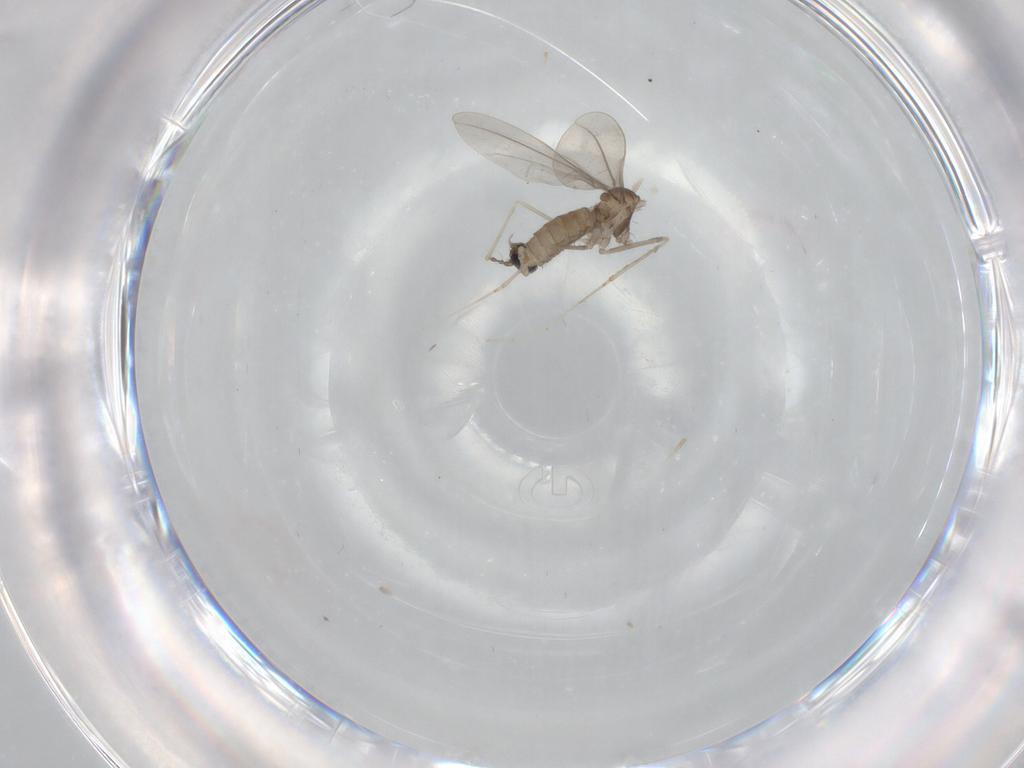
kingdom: Animalia
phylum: Arthropoda
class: Insecta
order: Diptera
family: Cecidomyiidae
